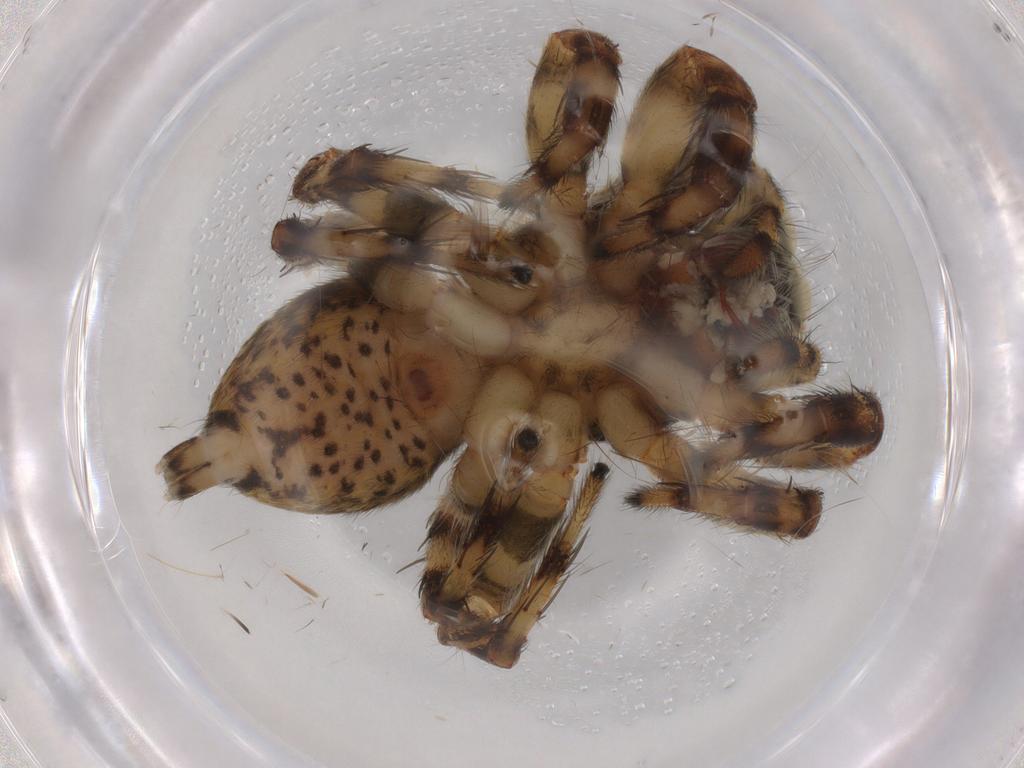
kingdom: Animalia
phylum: Arthropoda
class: Arachnida
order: Araneae
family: Salticidae
